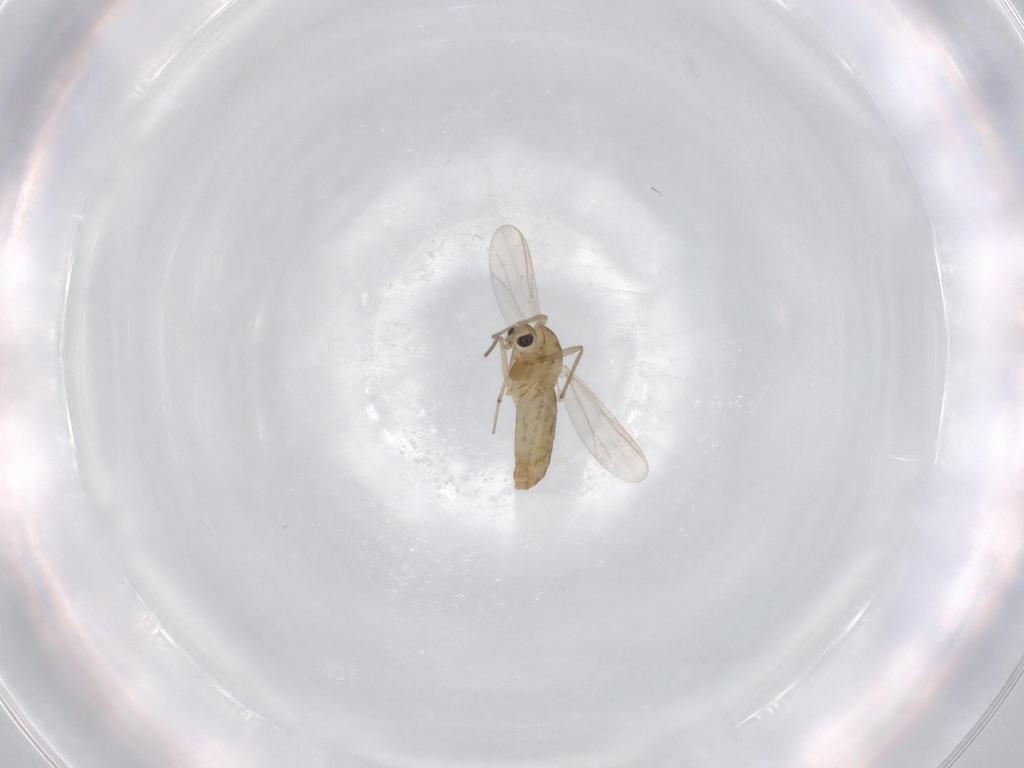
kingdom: Animalia
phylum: Arthropoda
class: Insecta
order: Diptera
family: Chironomidae
